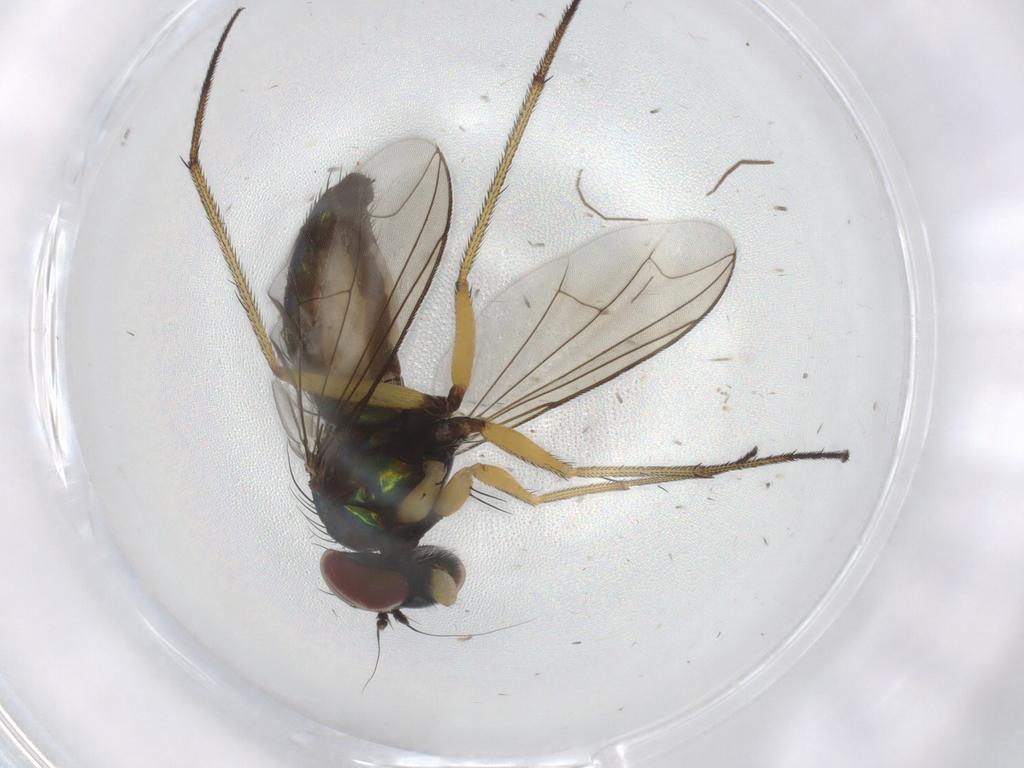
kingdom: Animalia
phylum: Arthropoda
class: Insecta
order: Diptera
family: Dolichopodidae
